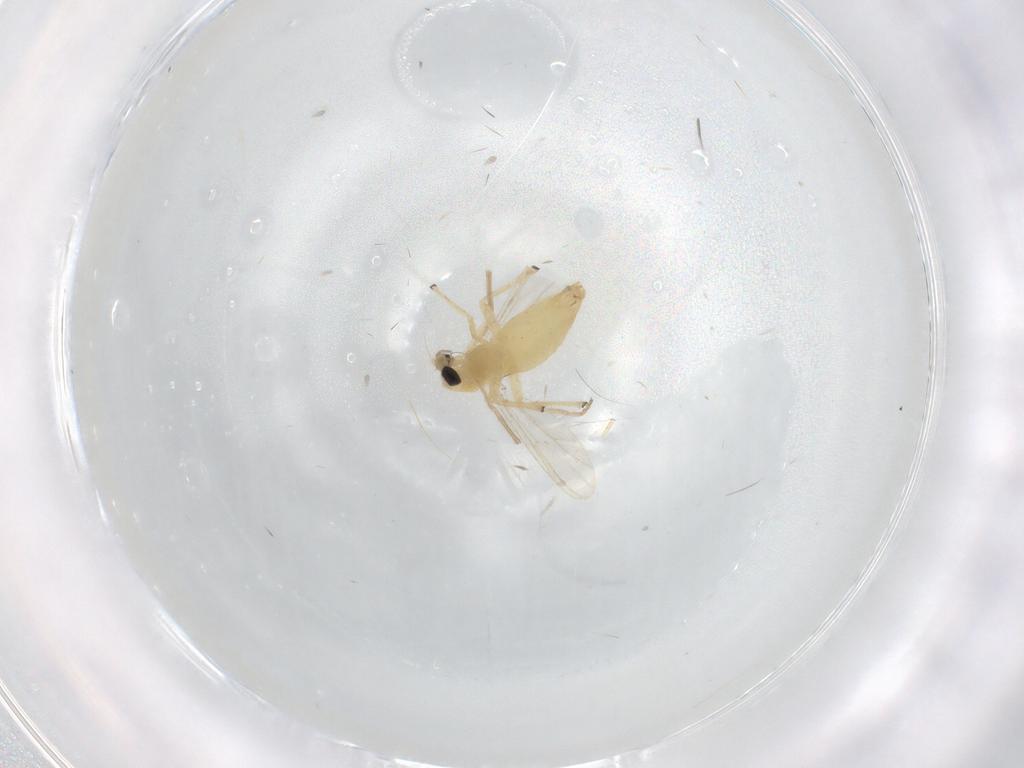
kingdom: Animalia
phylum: Arthropoda
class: Insecta
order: Diptera
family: Chironomidae
